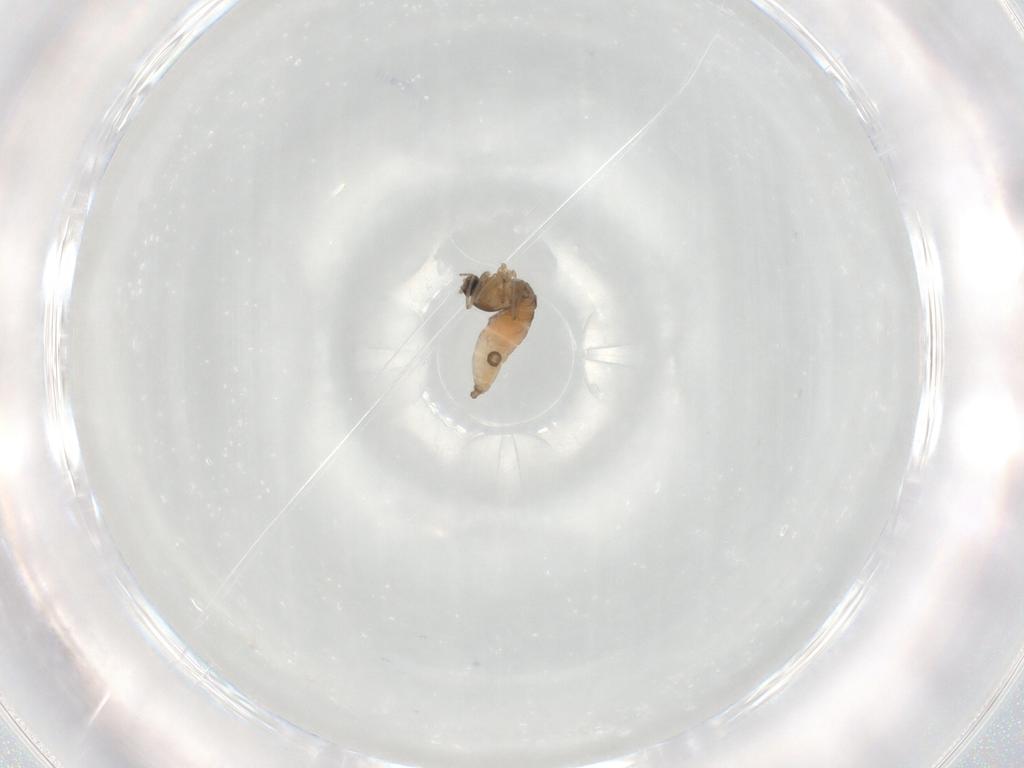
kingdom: Animalia
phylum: Arthropoda
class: Insecta
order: Diptera
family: Cecidomyiidae
